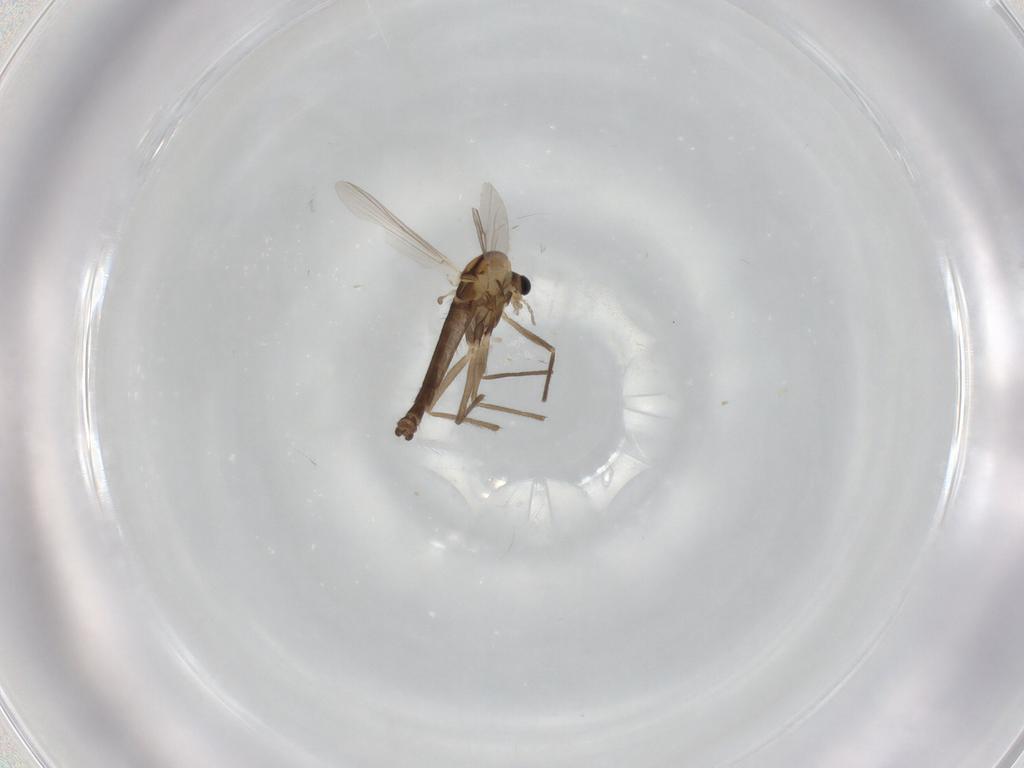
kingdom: Animalia
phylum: Arthropoda
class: Insecta
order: Diptera
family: Chironomidae
